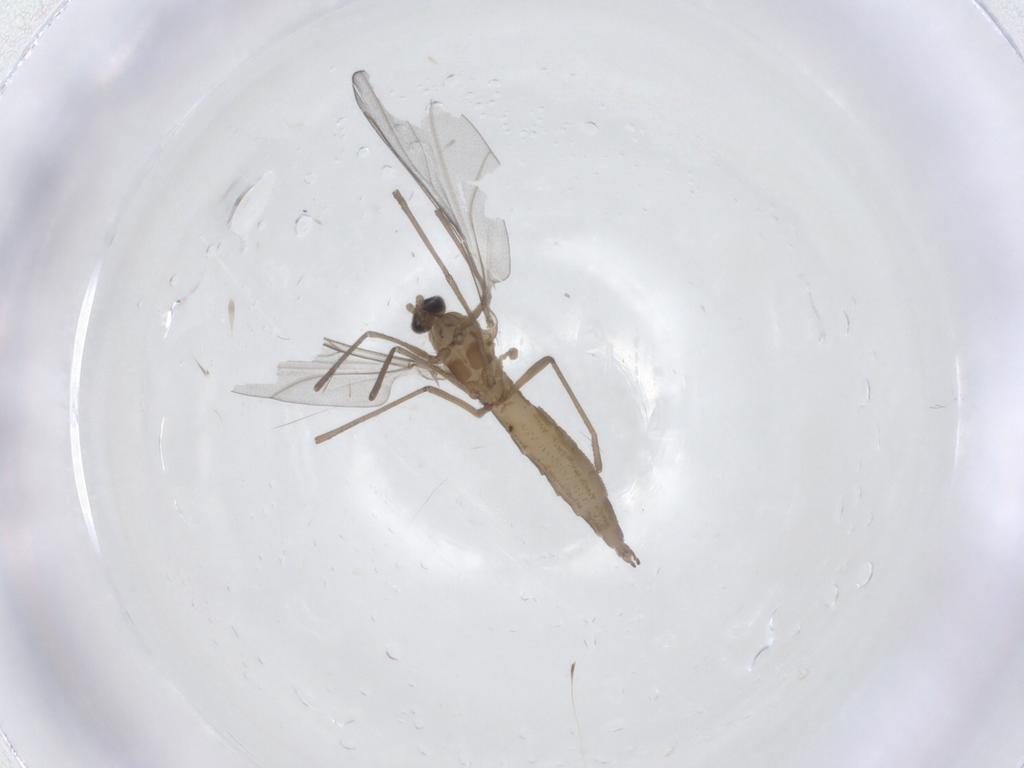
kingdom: Animalia
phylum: Arthropoda
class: Insecta
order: Diptera
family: Cecidomyiidae
